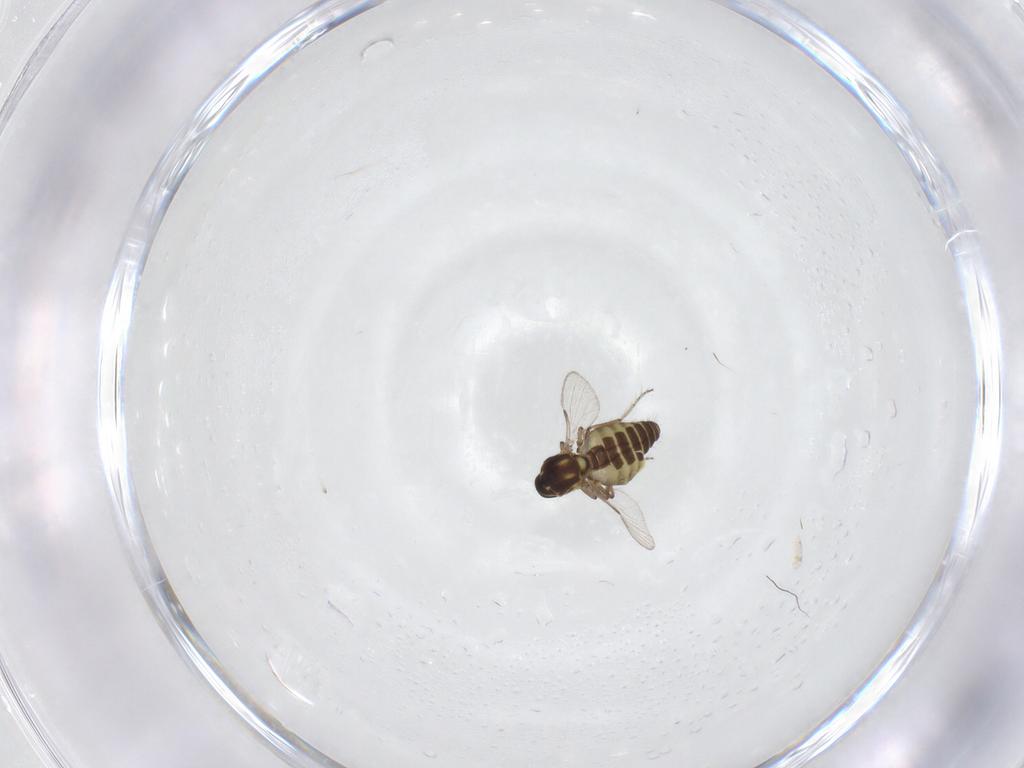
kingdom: Animalia
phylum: Arthropoda
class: Insecta
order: Diptera
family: Ceratopogonidae
